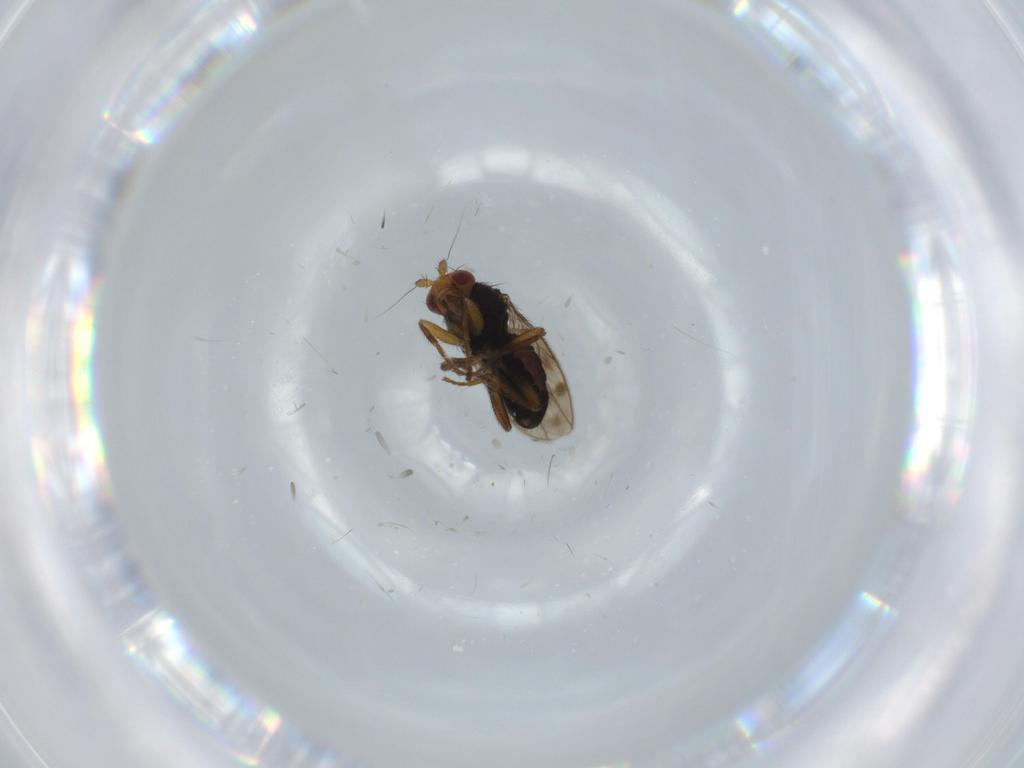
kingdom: Animalia
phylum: Arthropoda
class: Insecta
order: Diptera
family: Sphaeroceridae
